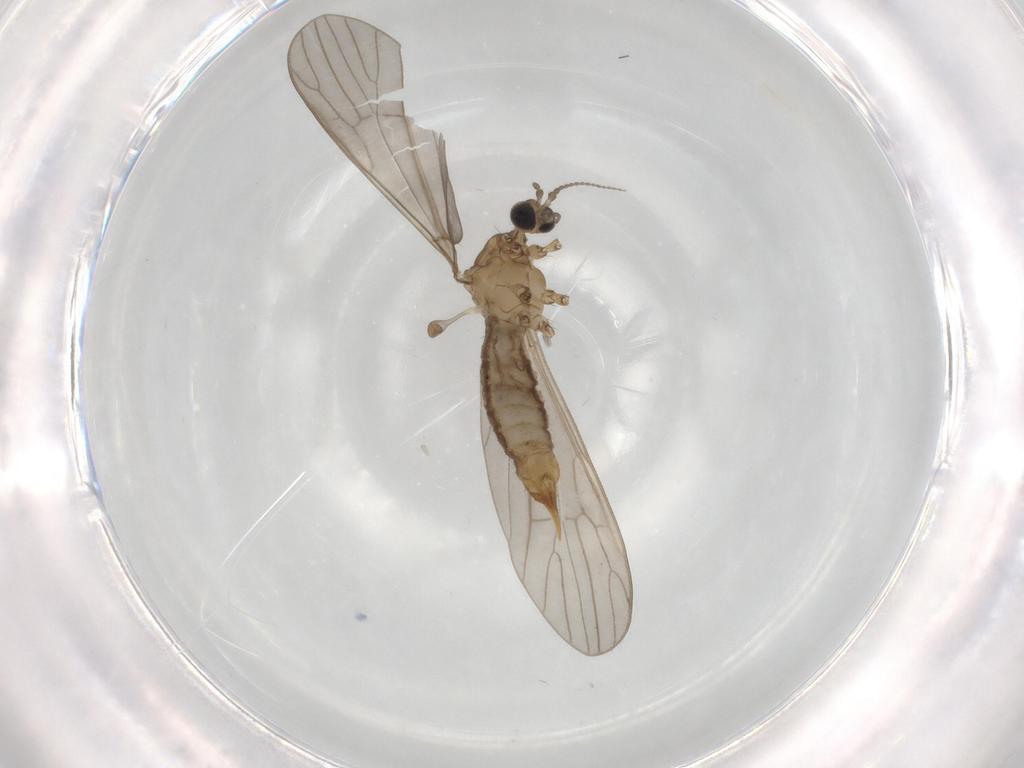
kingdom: Animalia
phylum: Arthropoda
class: Insecta
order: Diptera
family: Limoniidae
